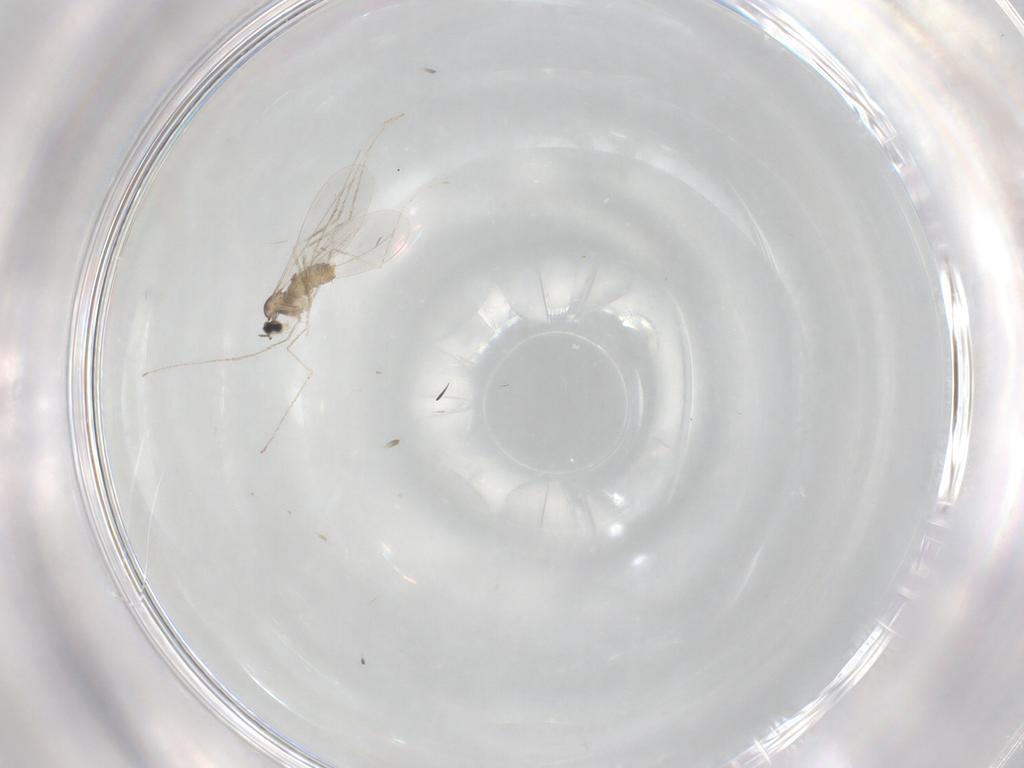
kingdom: Animalia
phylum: Arthropoda
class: Insecta
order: Diptera
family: Cecidomyiidae
